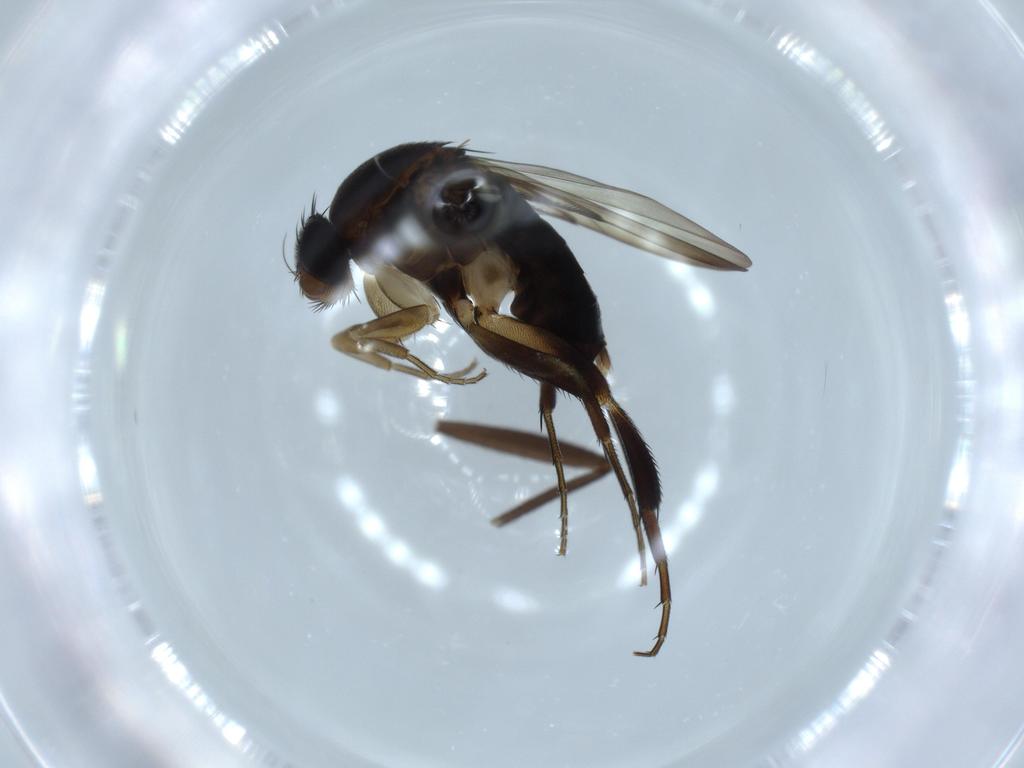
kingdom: Animalia
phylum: Arthropoda
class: Insecta
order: Diptera
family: Phoridae
